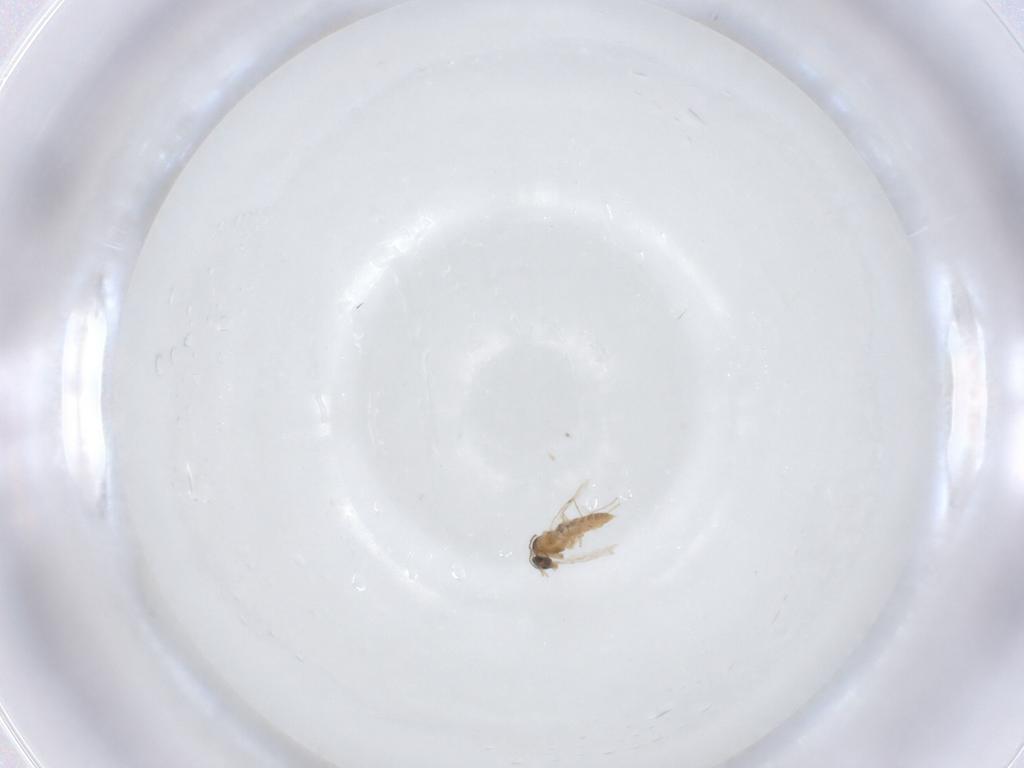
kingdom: Animalia
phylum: Arthropoda
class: Insecta
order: Diptera
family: Cecidomyiidae
